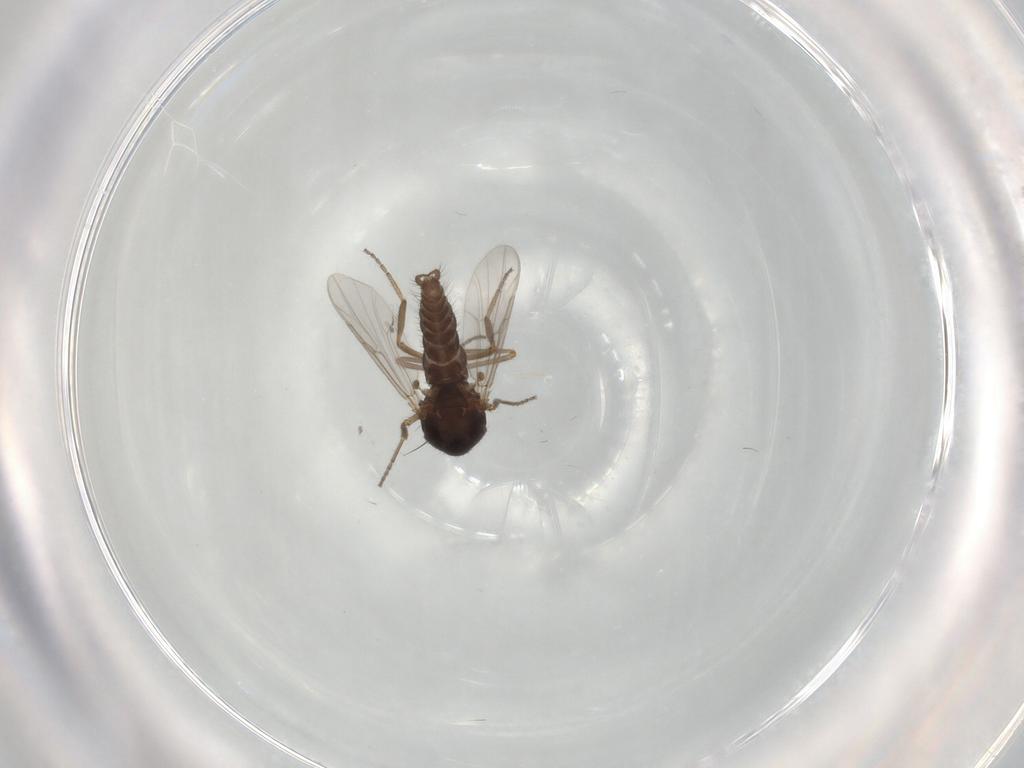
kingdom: Animalia
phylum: Arthropoda
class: Insecta
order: Diptera
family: Ceratopogonidae
